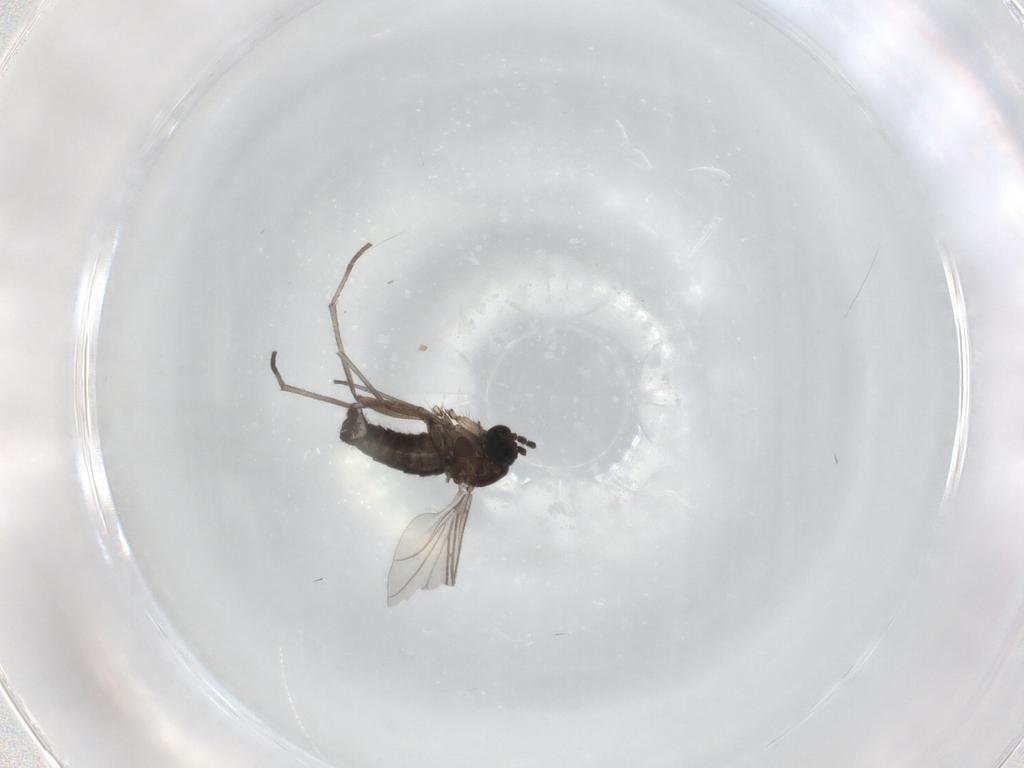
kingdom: Animalia
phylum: Arthropoda
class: Insecta
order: Diptera
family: Sciaridae
